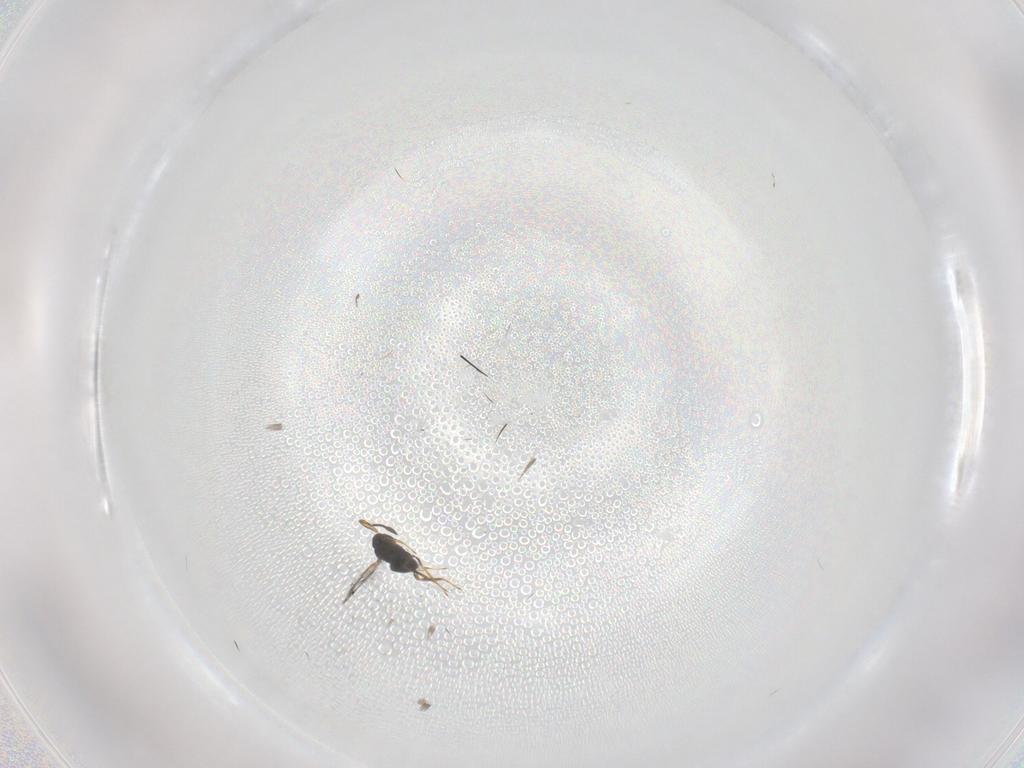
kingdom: Animalia
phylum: Arthropoda
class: Insecta
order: Hymenoptera
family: Mymaridae
